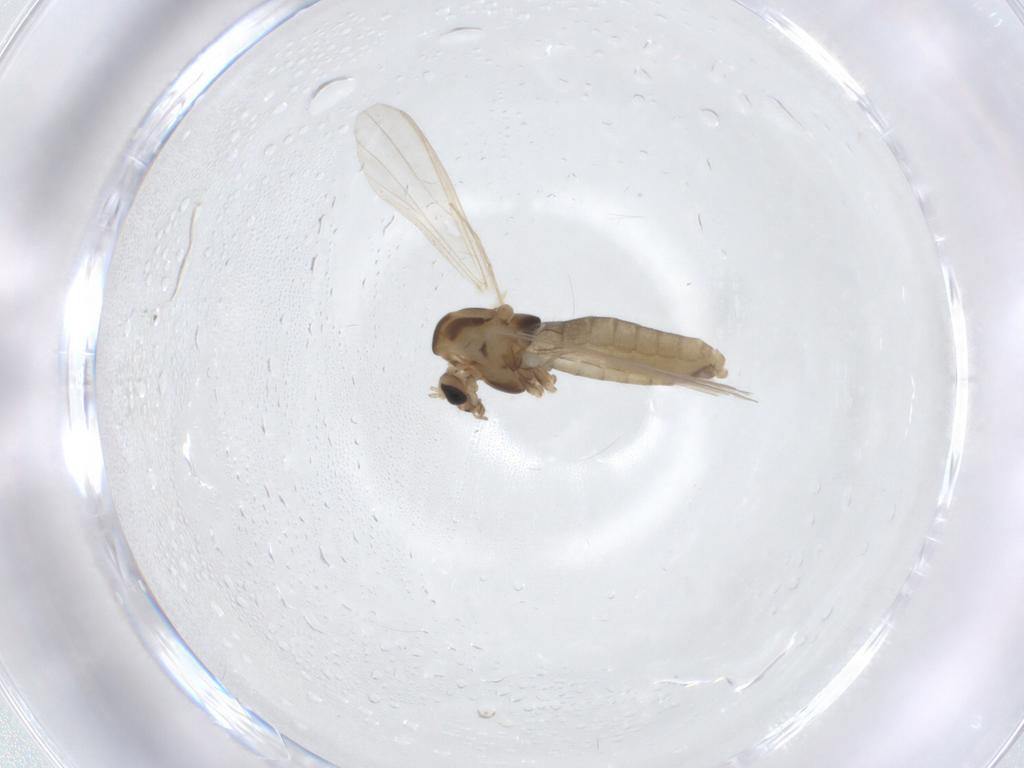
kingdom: Animalia
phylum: Arthropoda
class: Insecta
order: Diptera
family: Chironomidae
